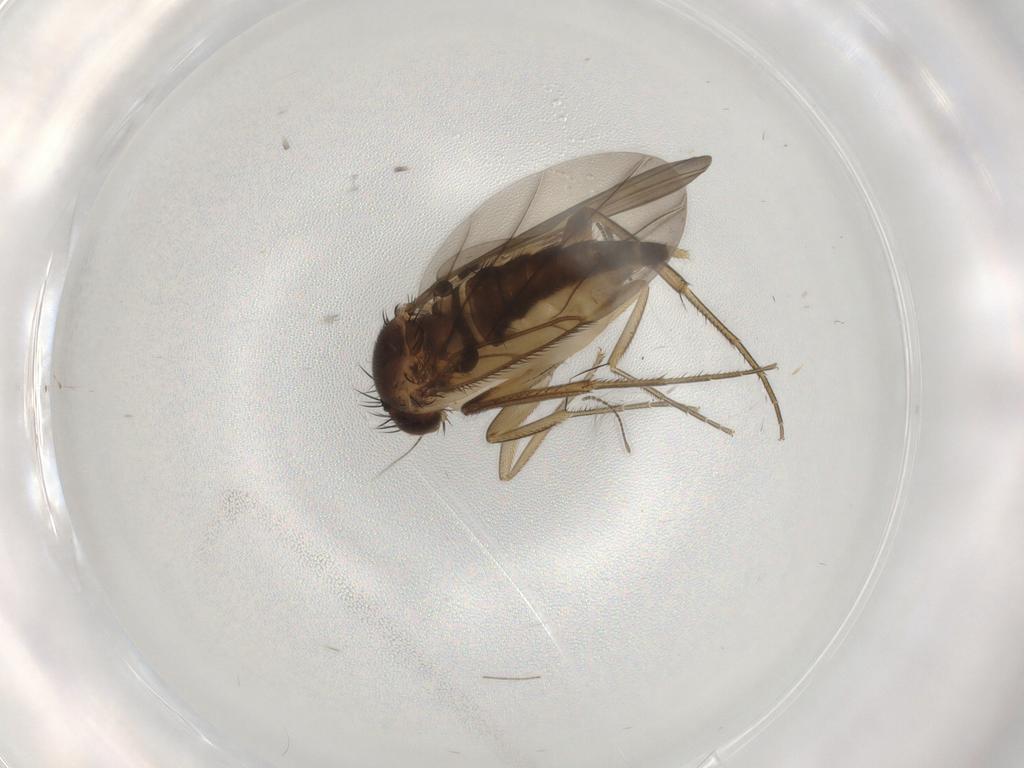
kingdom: Animalia
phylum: Arthropoda
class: Insecta
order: Diptera
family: Phoridae
